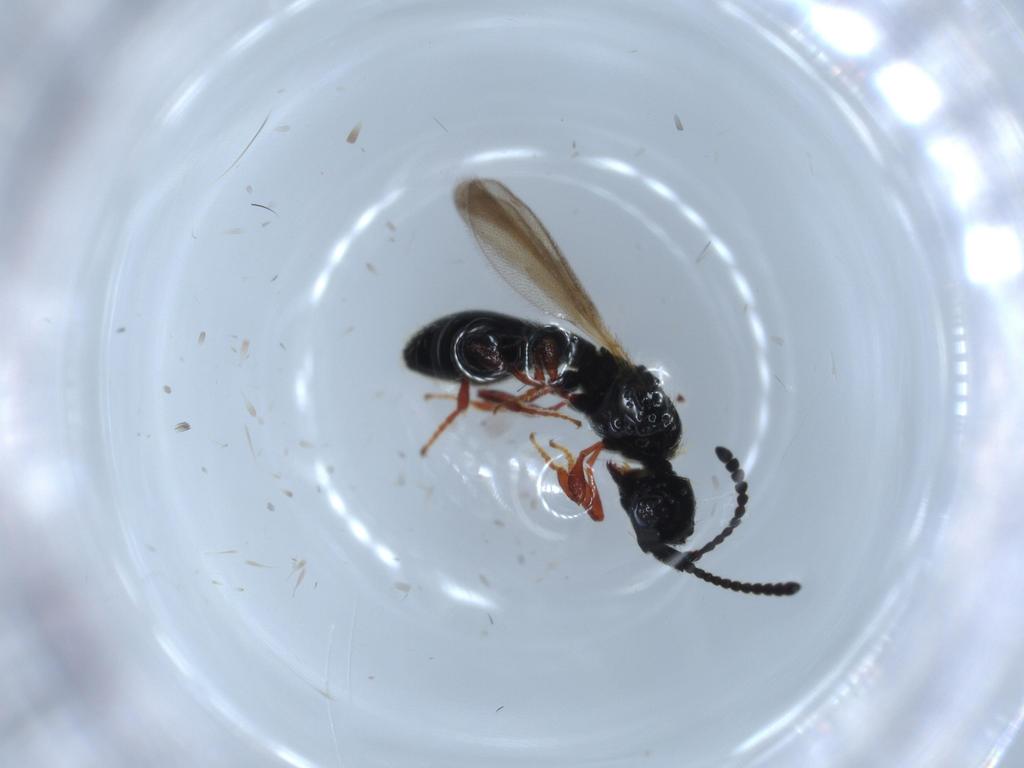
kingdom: Animalia
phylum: Arthropoda
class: Insecta
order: Hymenoptera
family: Diapriidae
